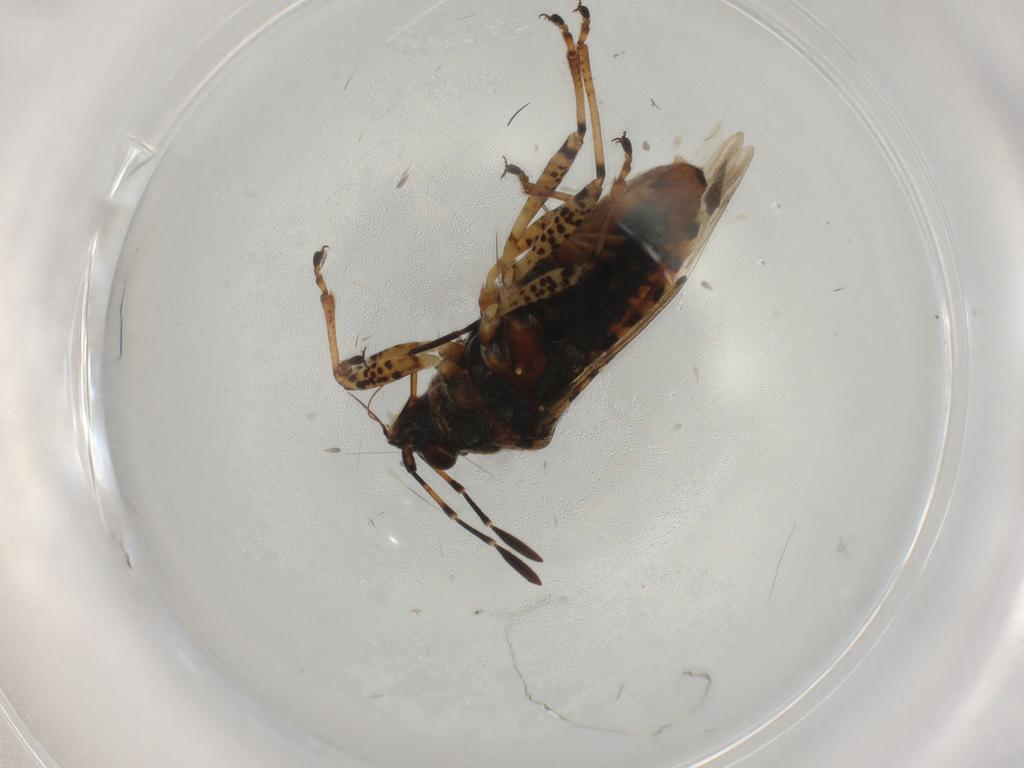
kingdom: Animalia
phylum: Arthropoda
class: Insecta
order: Hemiptera
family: Lygaeidae
